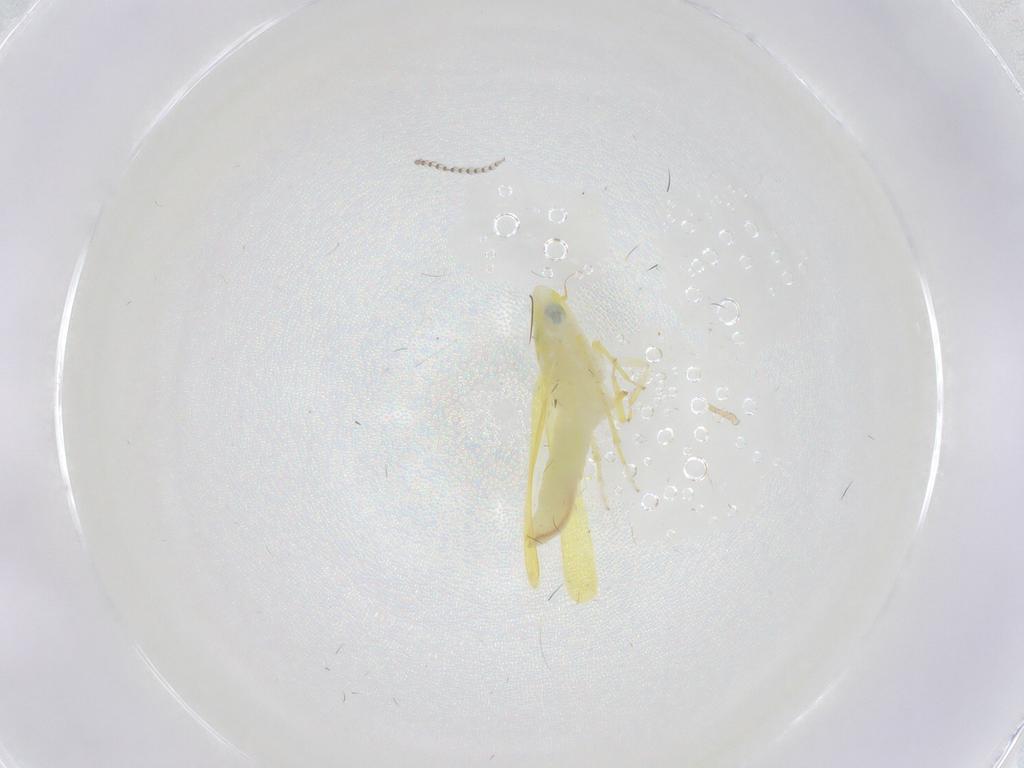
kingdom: Animalia
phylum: Arthropoda
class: Insecta
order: Hemiptera
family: Cicadellidae
